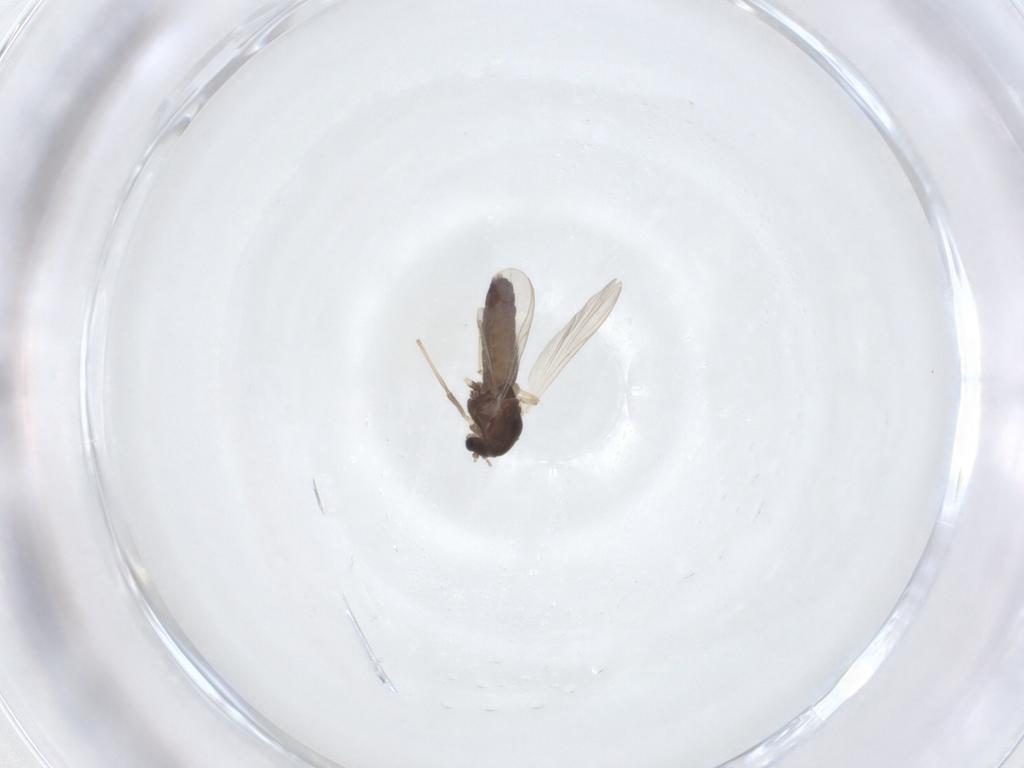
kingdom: Animalia
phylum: Arthropoda
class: Insecta
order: Diptera
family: Chironomidae
